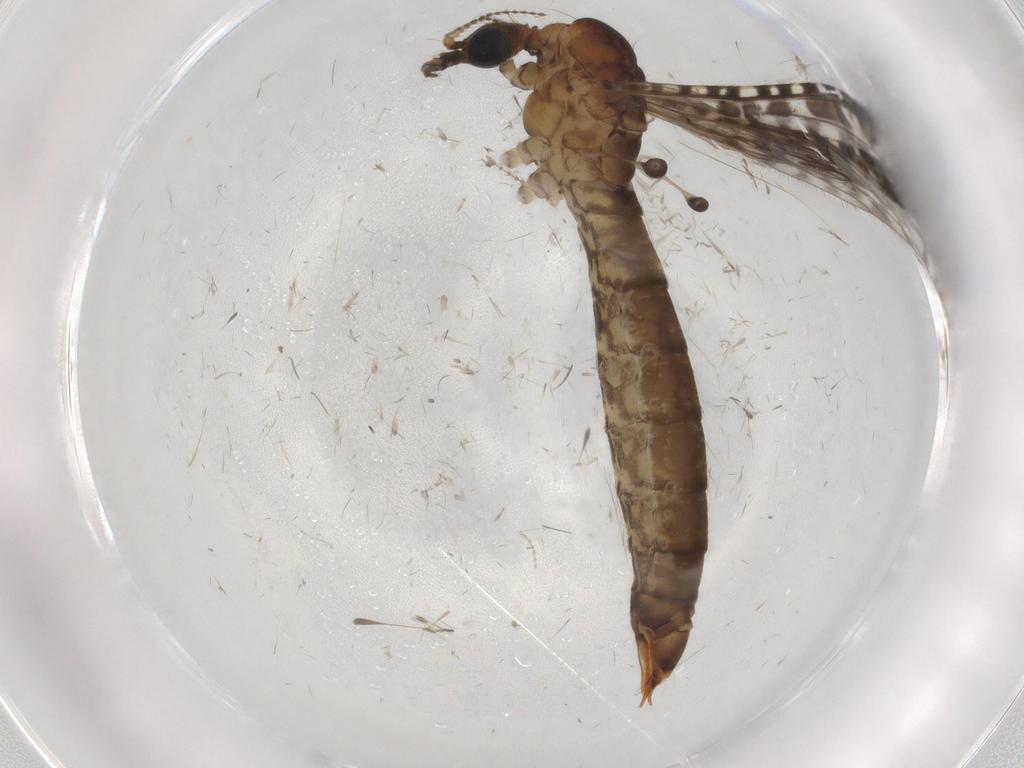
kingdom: Animalia
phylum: Arthropoda
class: Insecta
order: Diptera
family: Limoniidae
